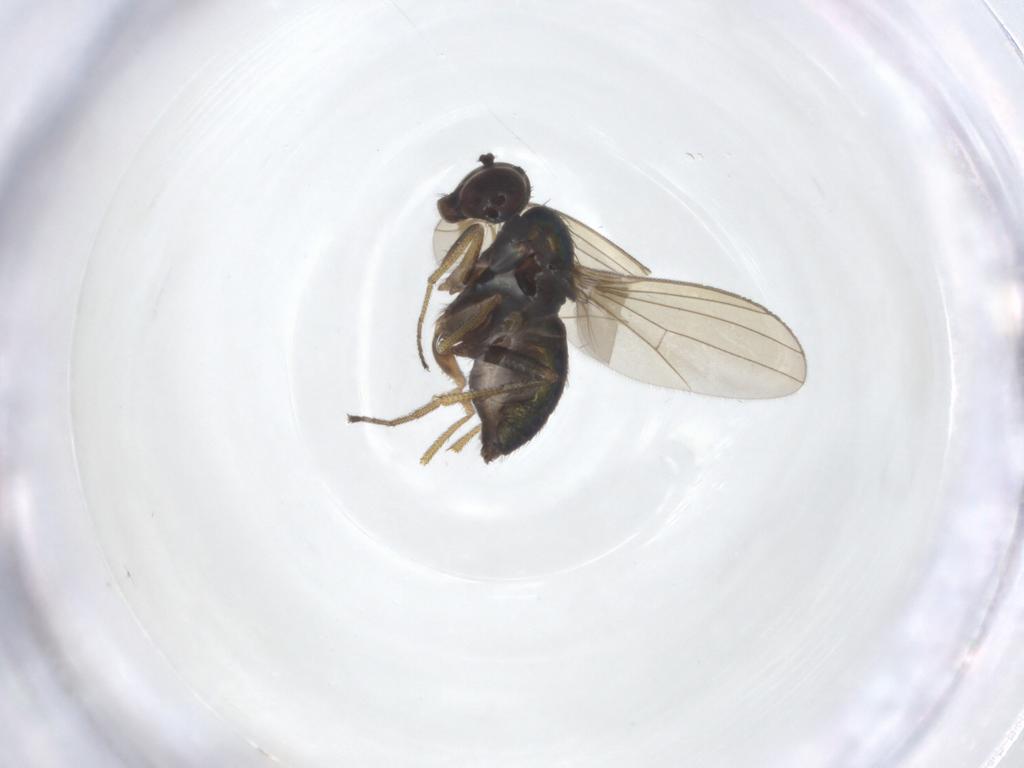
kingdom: Animalia
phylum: Arthropoda
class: Insecta
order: Diptera
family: Dolichopodidae
